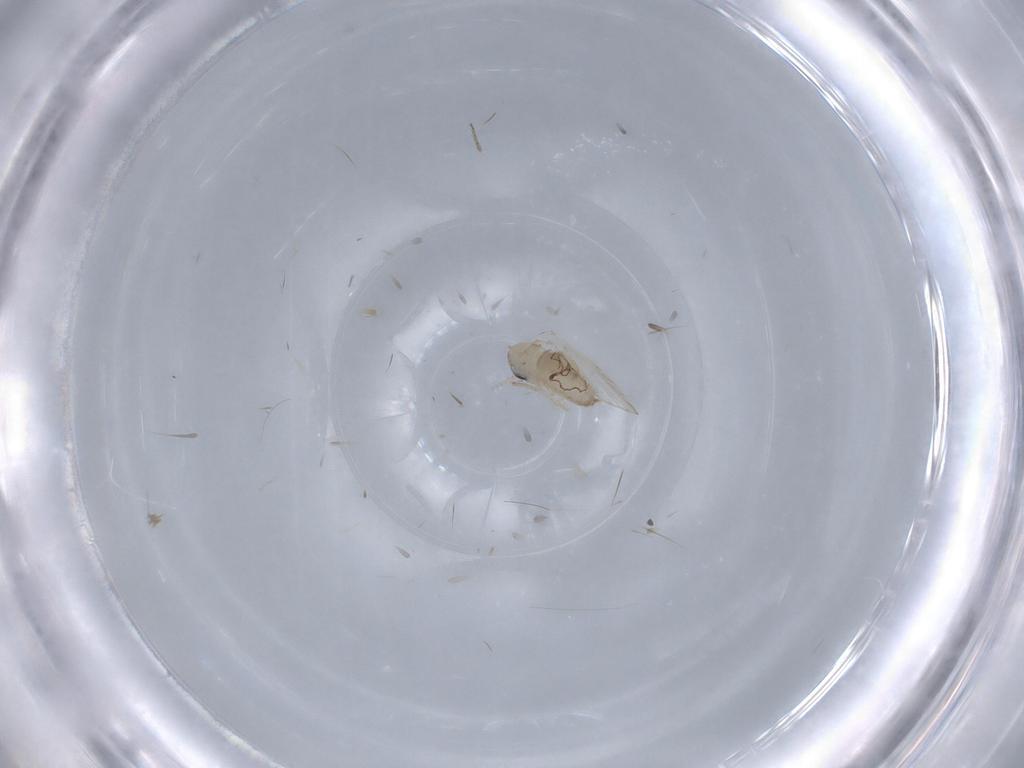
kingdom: Animalia
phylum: Arthropoda
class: Insecta
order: Diptera
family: Psychodidae
